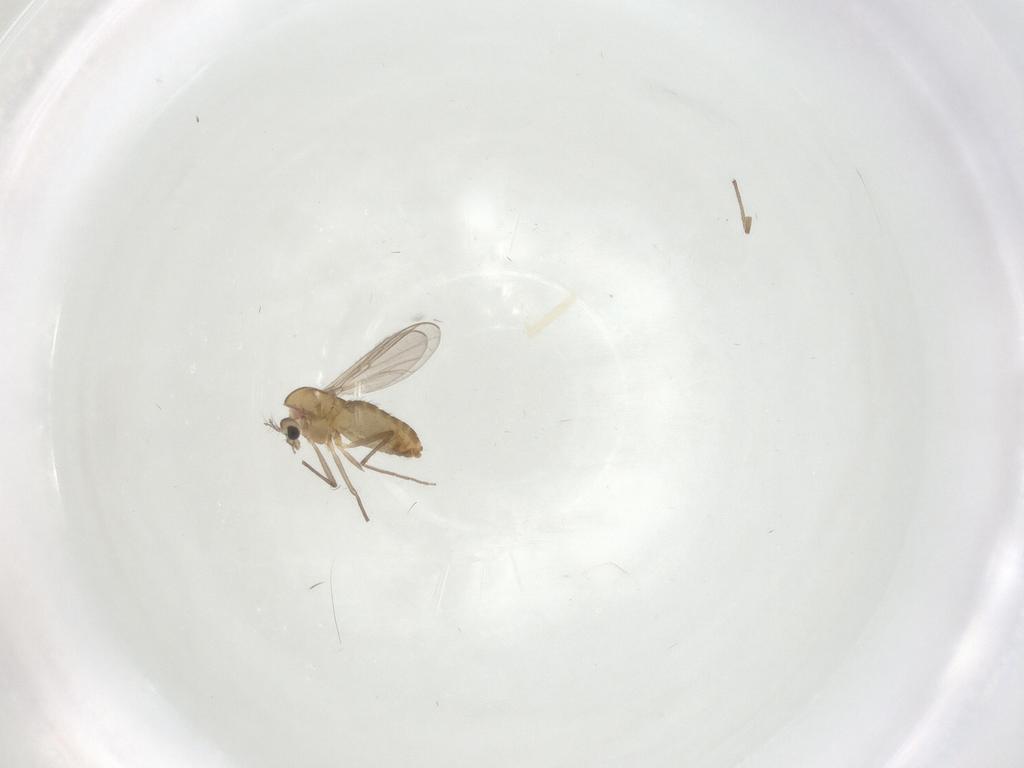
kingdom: Animalia
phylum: Arthropoda
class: Insecta
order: Diptera
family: Chironomidae
